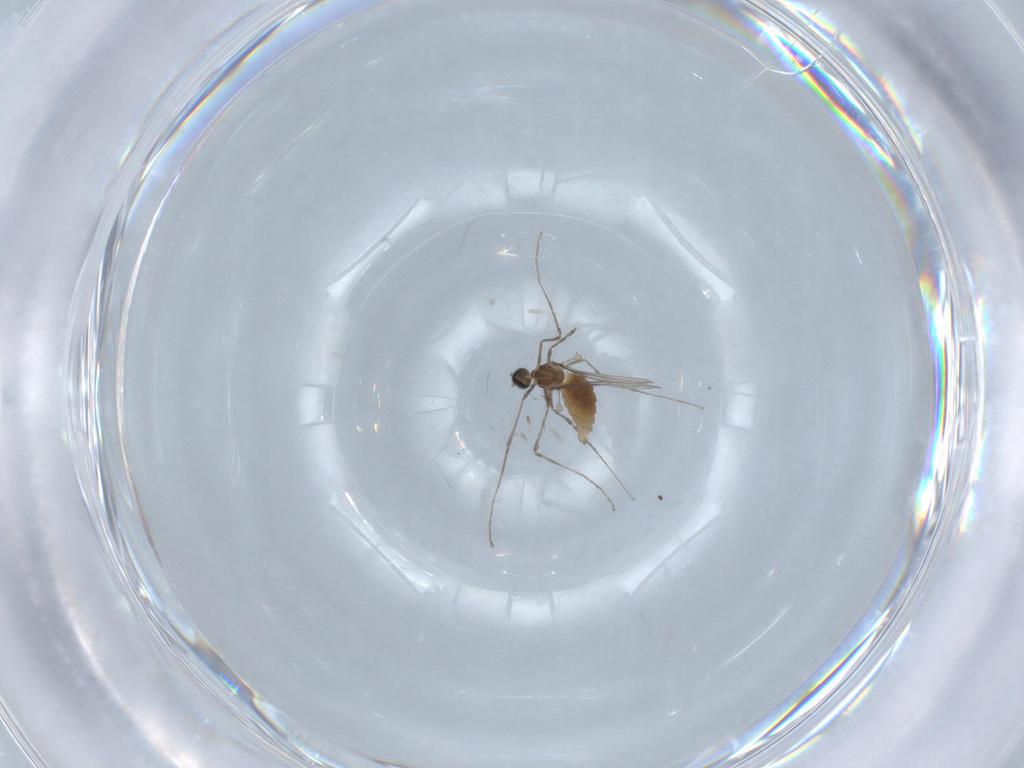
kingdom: Animalia
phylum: Arthropoda
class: Insecta
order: Diptera
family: Cecidomyiidae
